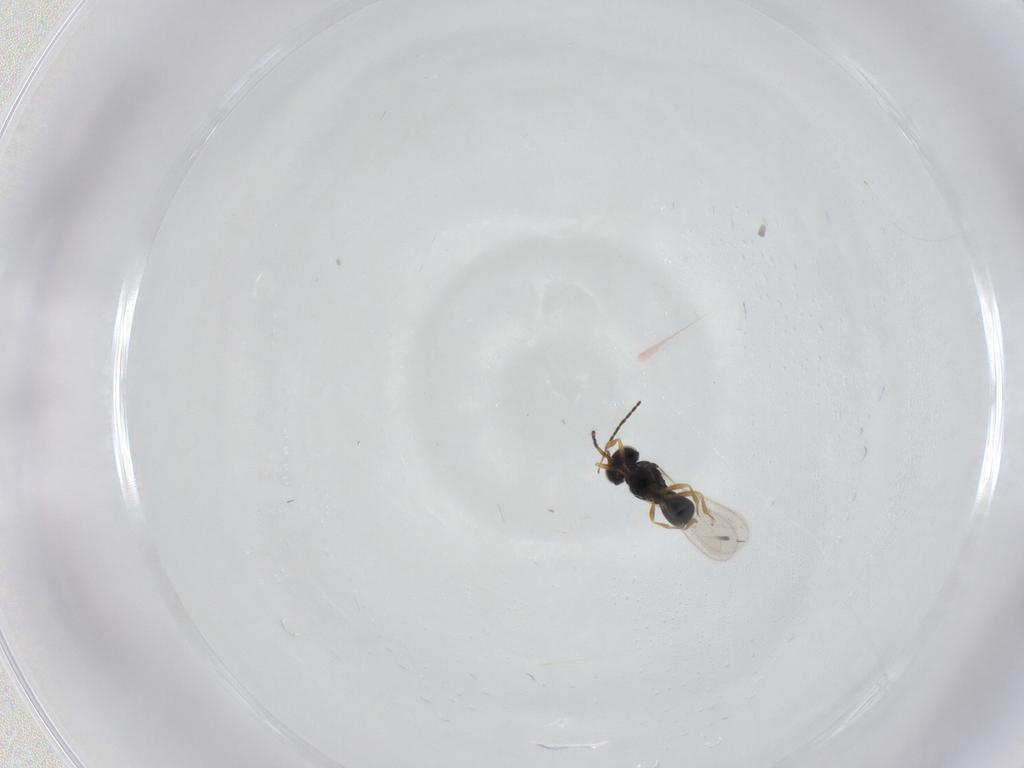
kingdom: Animalia
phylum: Arthropoda
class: Insecta
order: Hymenoptera
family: Scelionidae
